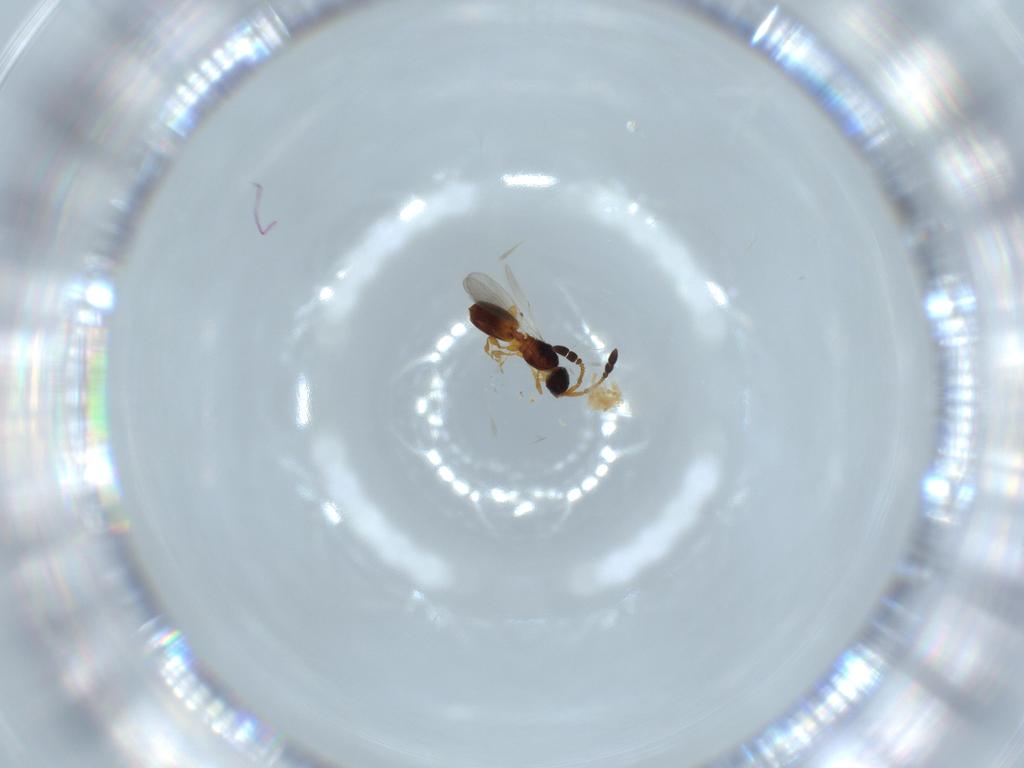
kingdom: Animalia
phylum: Arthropoda
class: Insecta
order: Hymenoptera
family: Diapriidae
